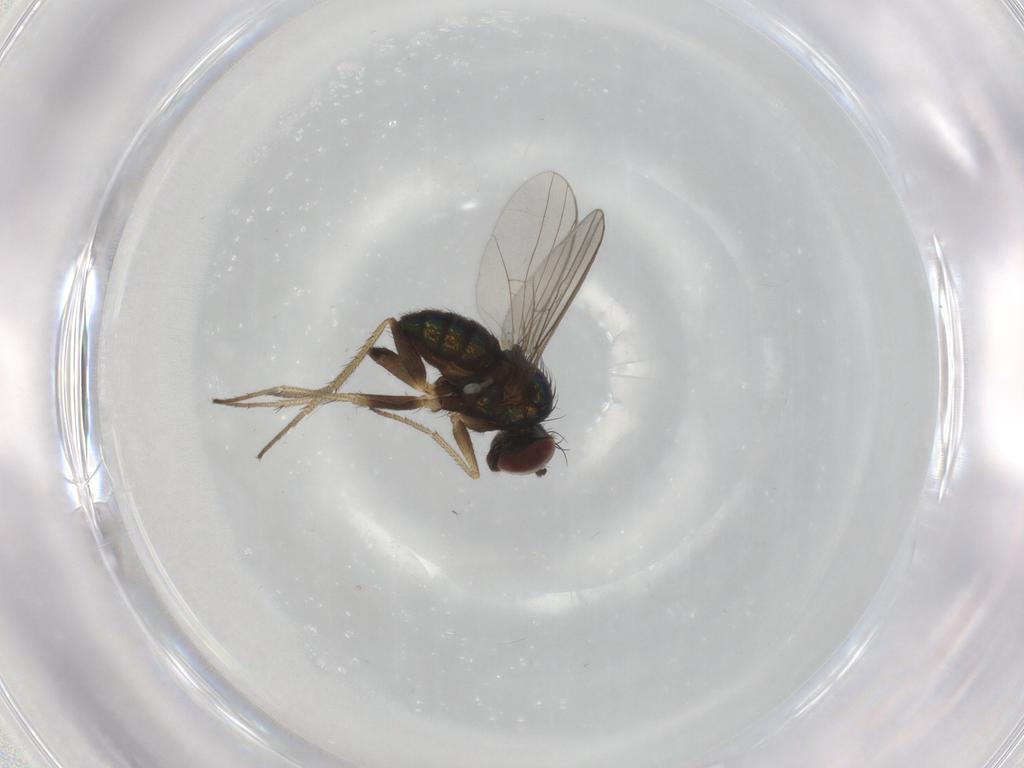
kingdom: Animalia
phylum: Arthropoda
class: Insecta
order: Diptera
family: Dolichopodidae
